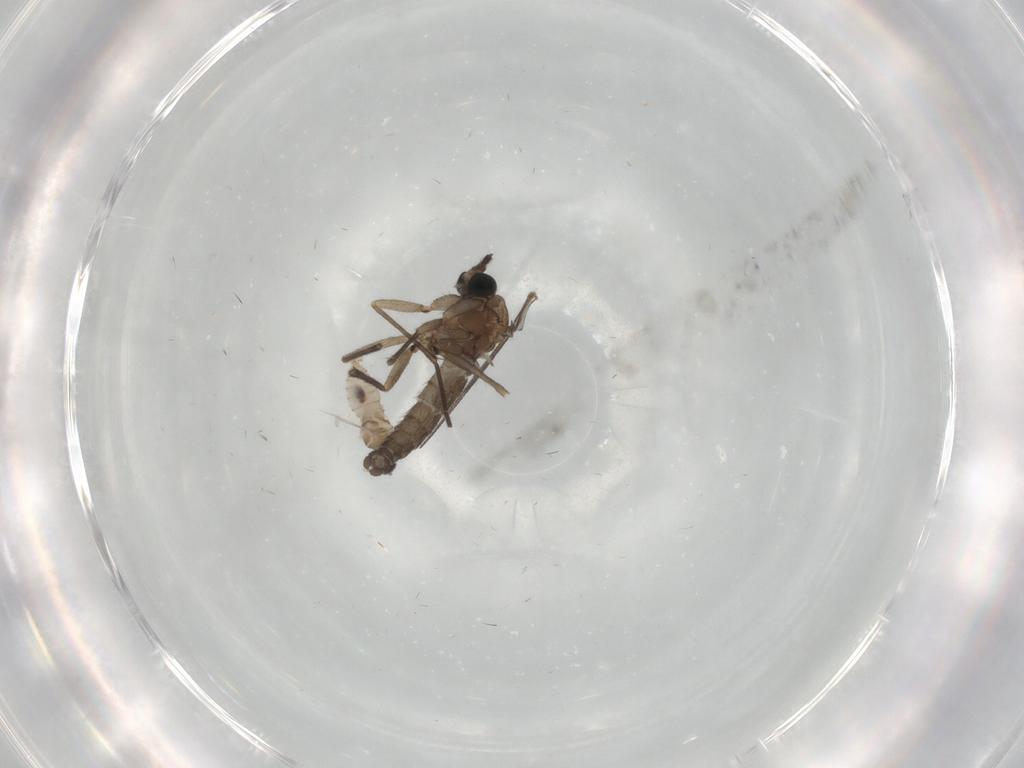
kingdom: Animalia
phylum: Arthropoda
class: Insecta
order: Diptera
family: Sciaridae
